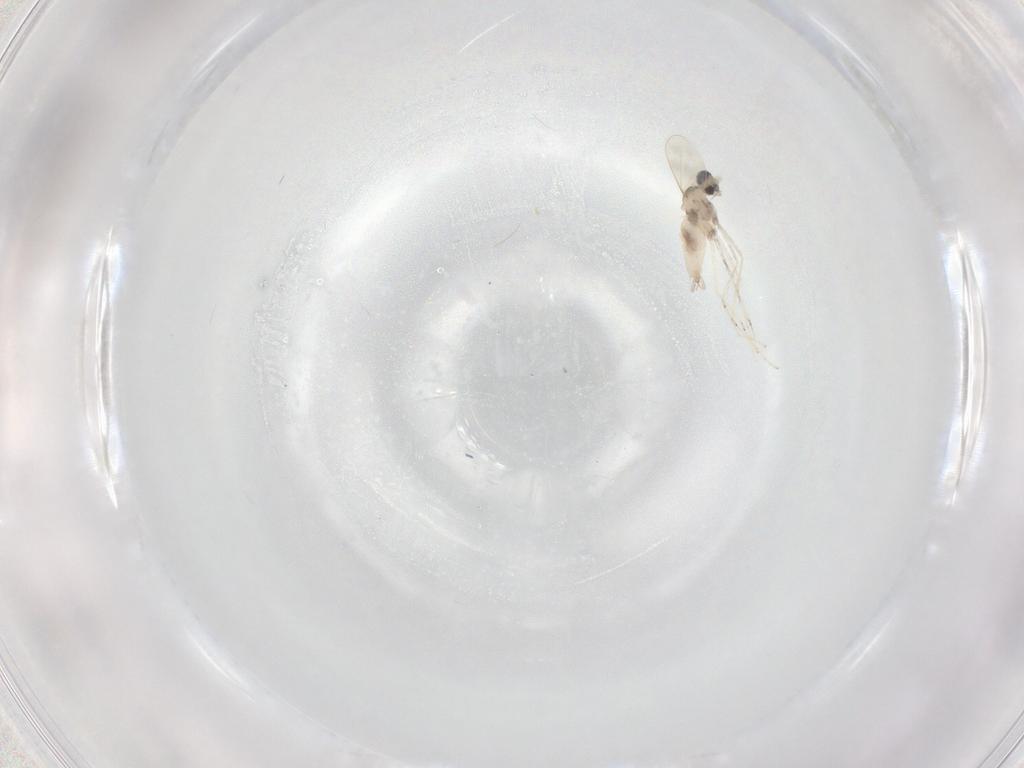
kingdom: Animalia
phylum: Arthropoda
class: Insecta
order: Diptera
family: Cecidomyiidae
